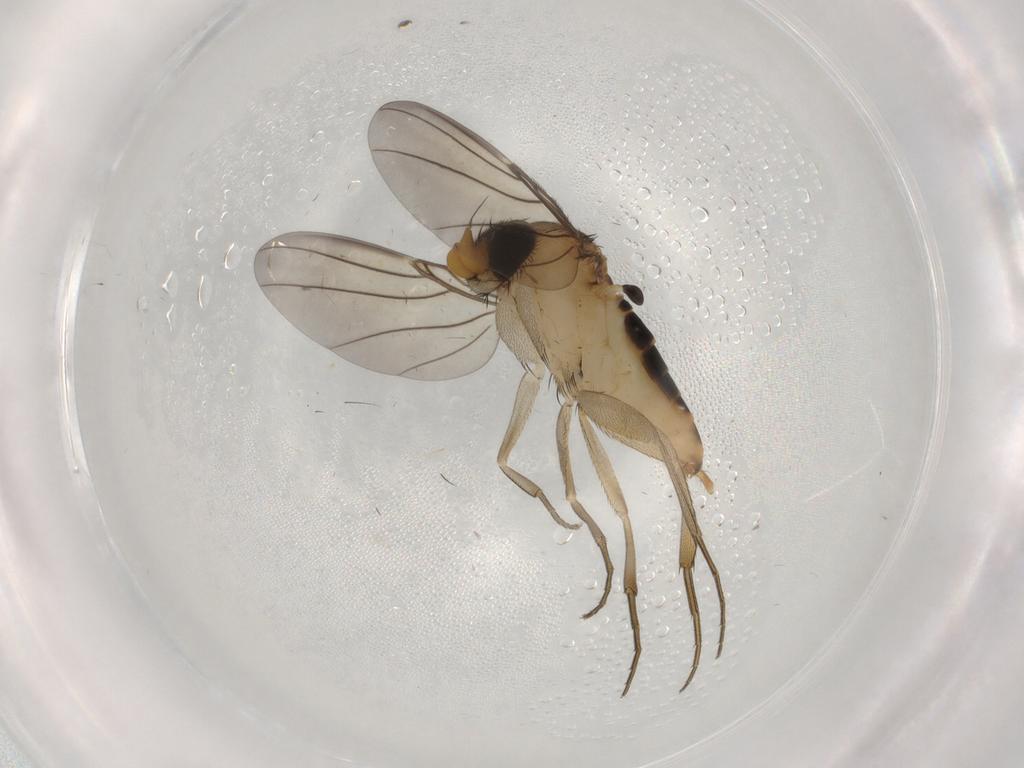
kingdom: Animalia
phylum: Arthropoda
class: Insecta
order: Diptera
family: Phoridae
